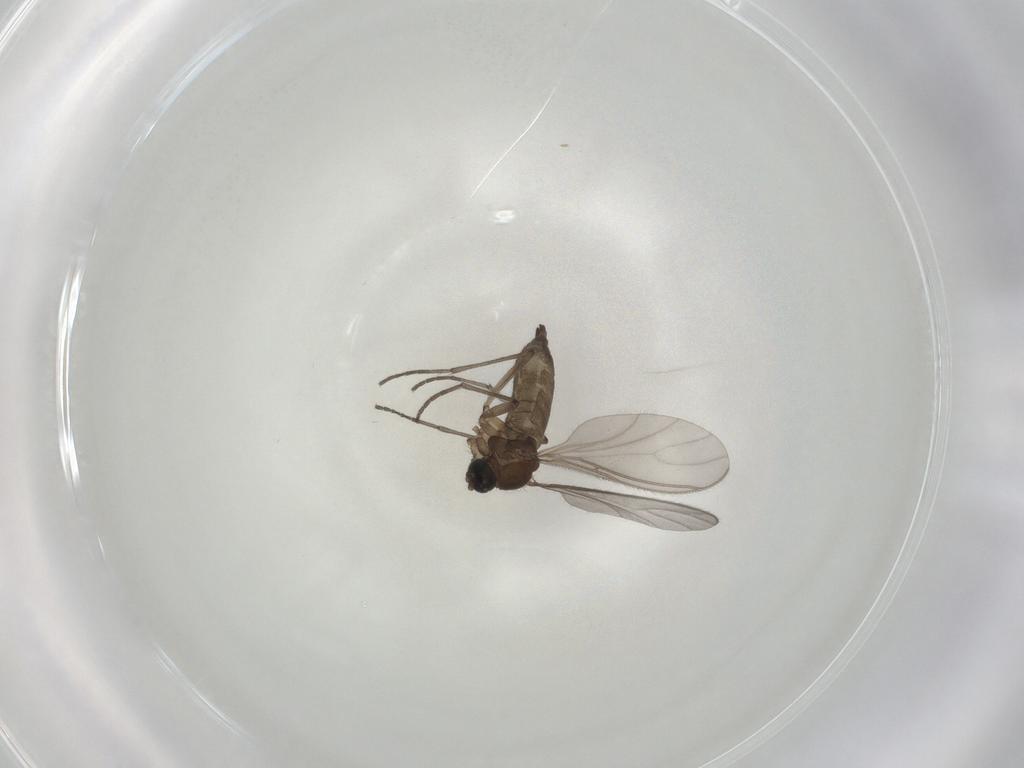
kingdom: Animalia
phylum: Arthropoda
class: Insecta
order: Diptera
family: Sciaridae
